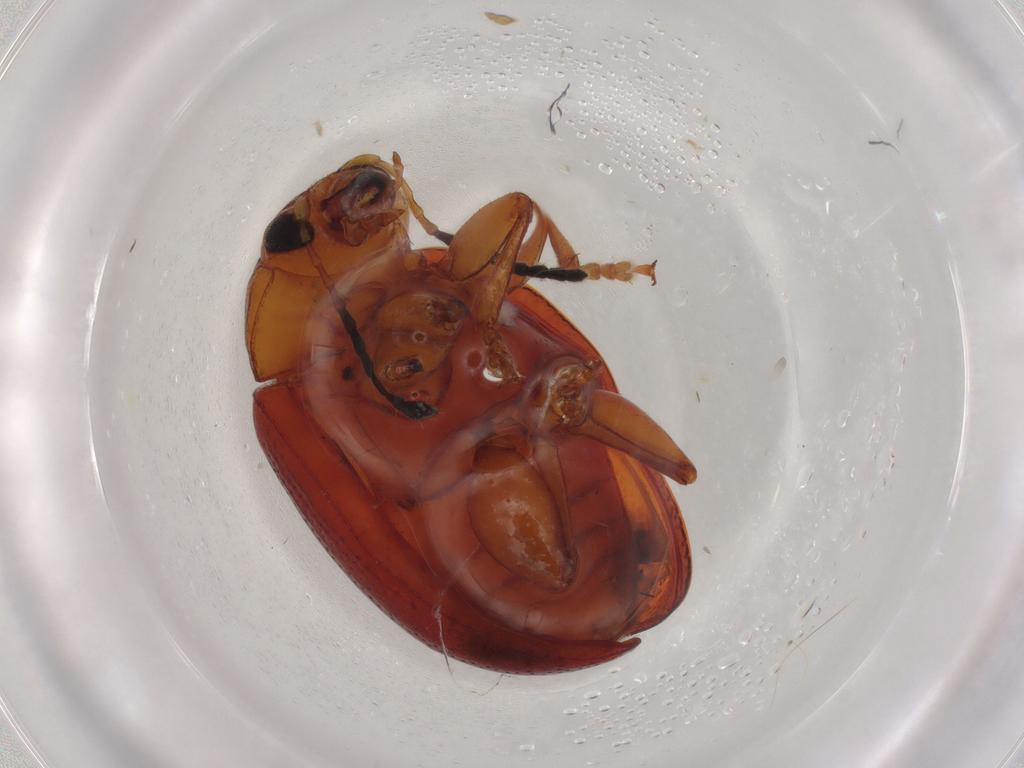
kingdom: Animalia
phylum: Arthropoda
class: Insecta
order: Coleoptera
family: Chrysomelidae
